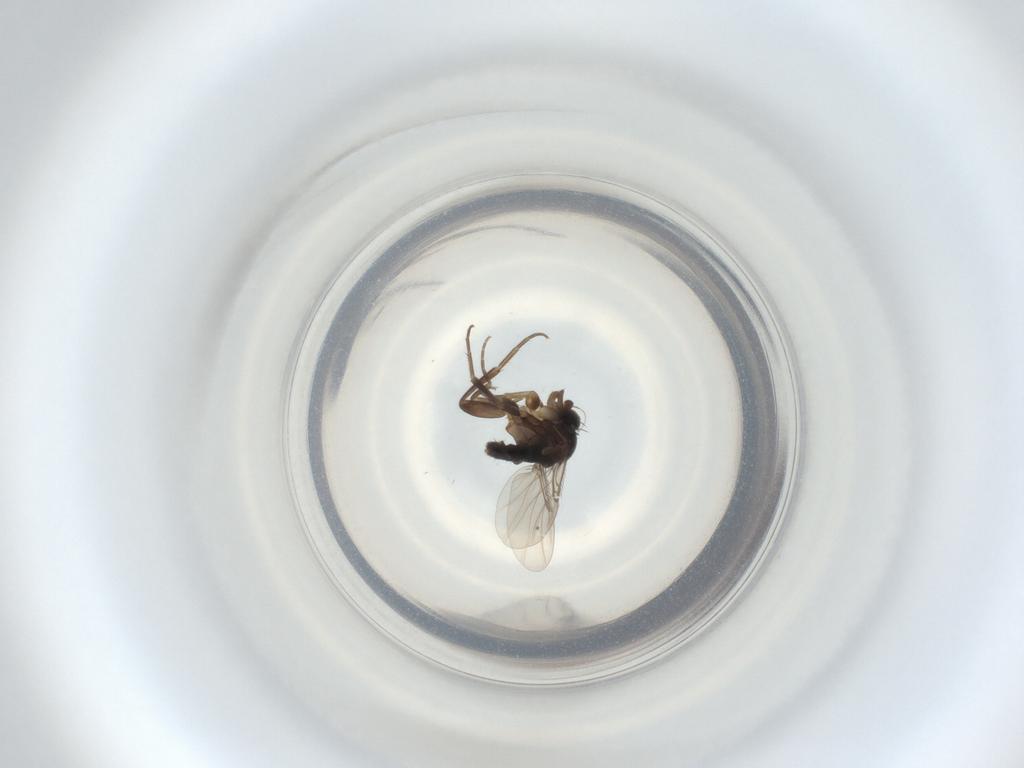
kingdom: Animalia
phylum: Arthropoda
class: Insecta
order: Diptera
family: Phoridae
